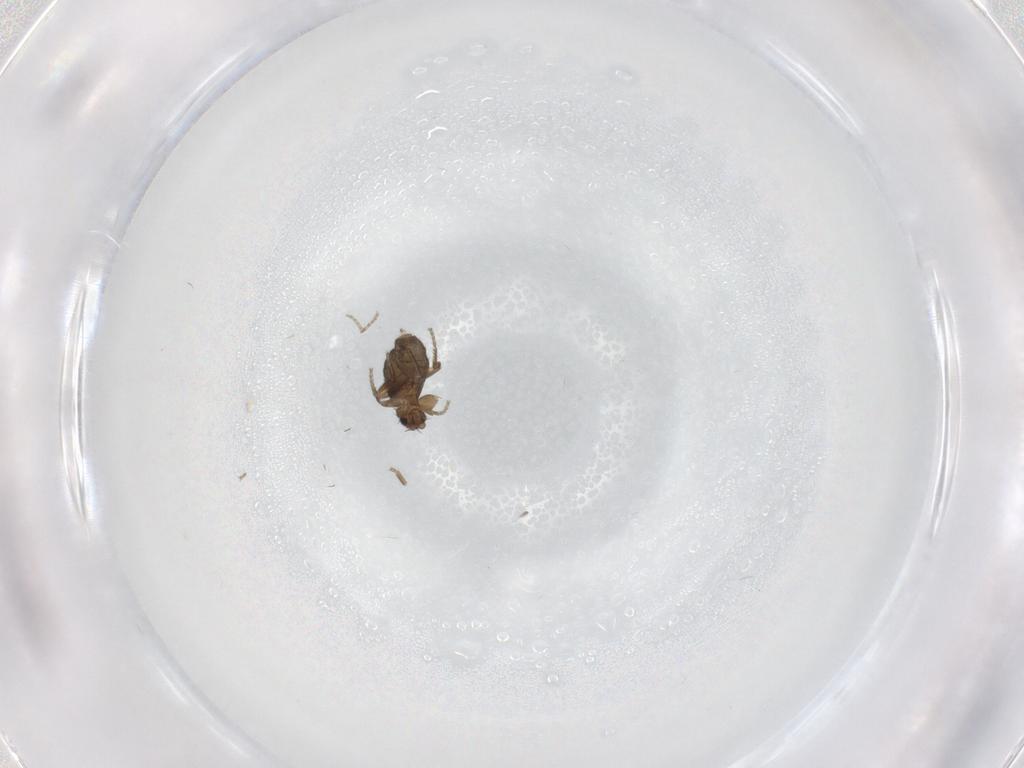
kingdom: Animalia
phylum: Arthropoda
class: Insecta
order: Diptera
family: Phoridae
